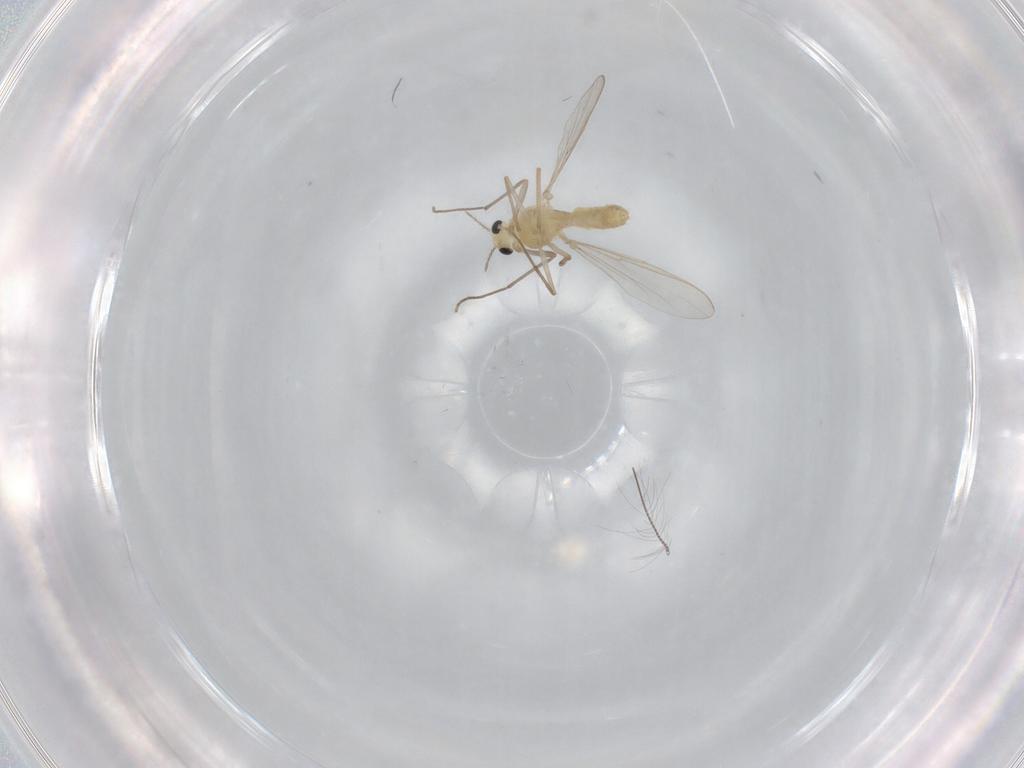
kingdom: Animalia
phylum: Arthropoda
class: Insecta
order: Diptera
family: Chironomidae
